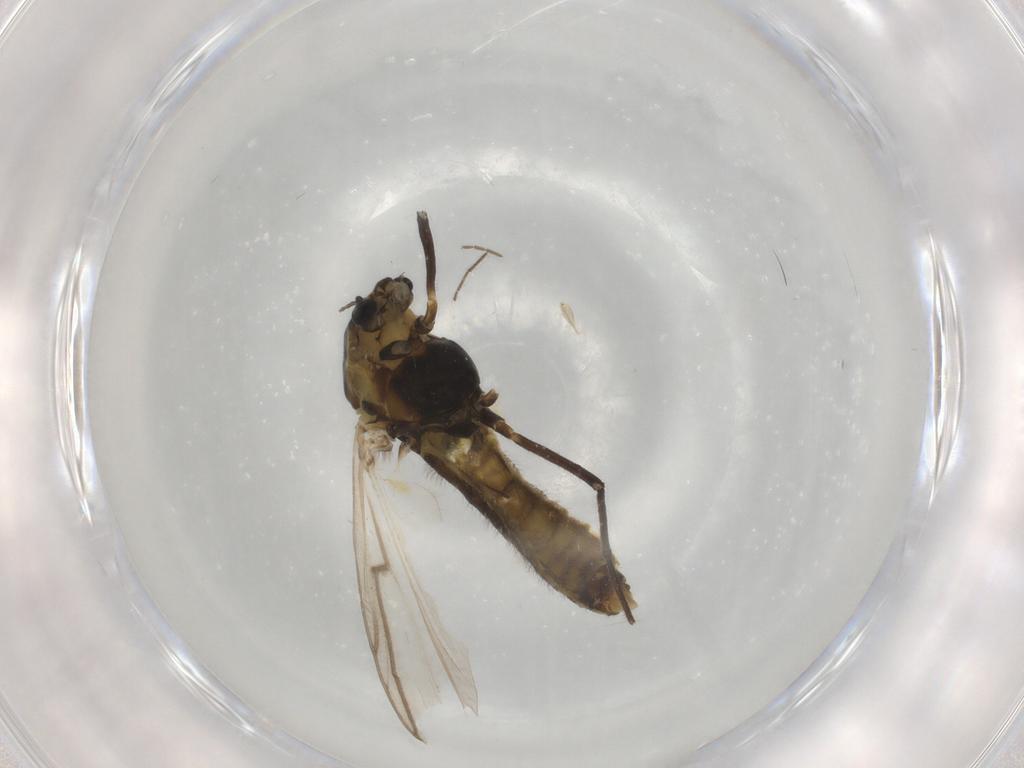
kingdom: Animalia
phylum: Arthropoda
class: Insecta
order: Diptera
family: Chironomidae
